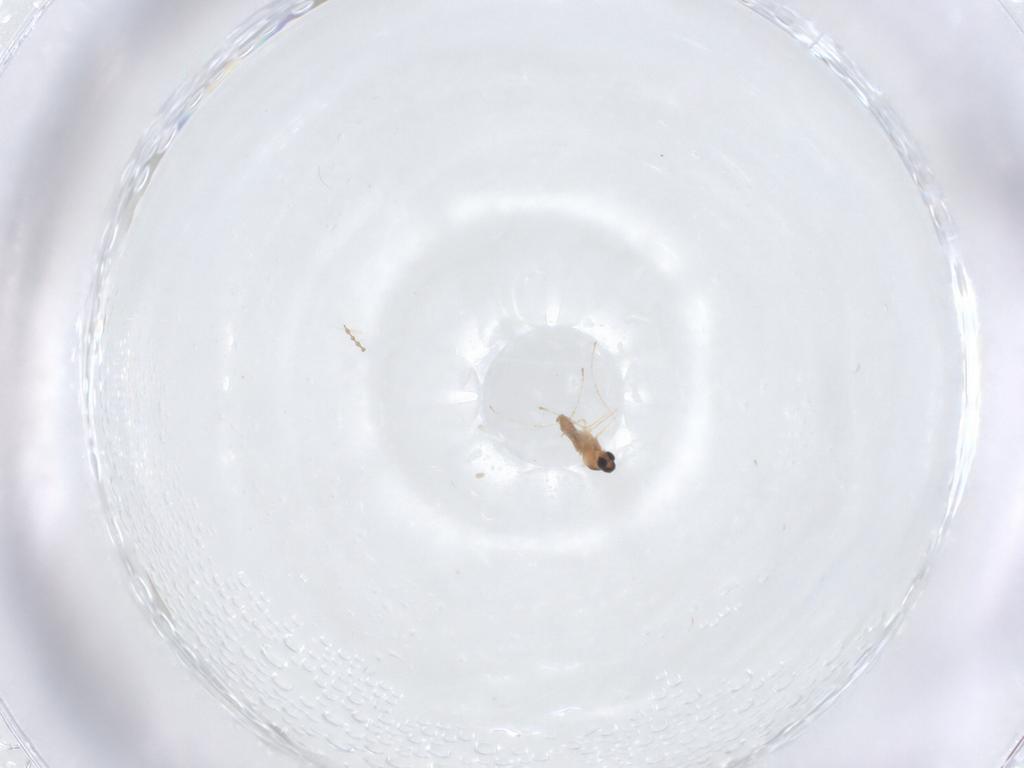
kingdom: Animalia
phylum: Arthropoda
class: Insecta
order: Diptera
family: Cecidomyiidae
